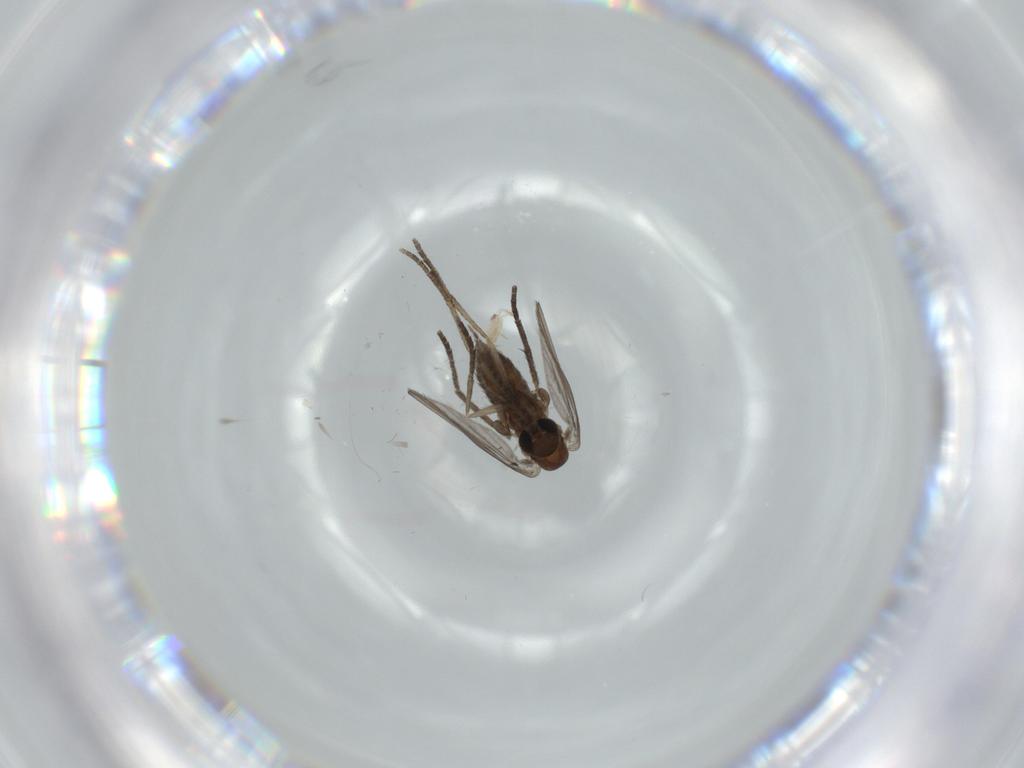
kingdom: Animalia
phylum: Arthropoda
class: Insecta
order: Diptera
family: Psychodidae
